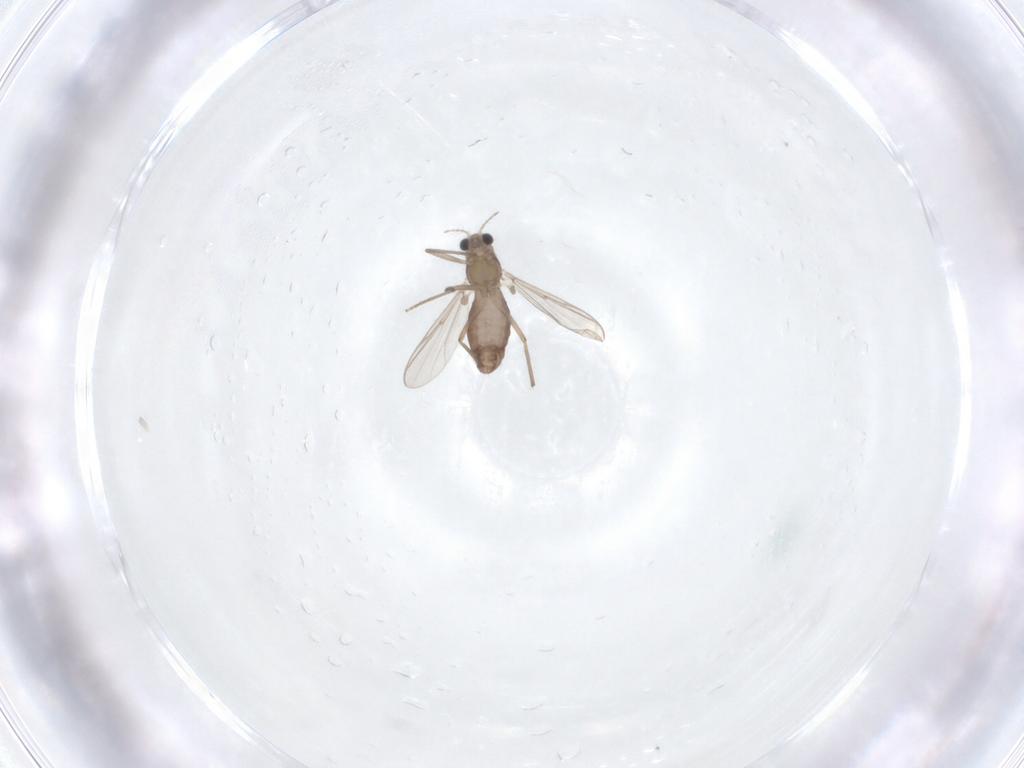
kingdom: Animalia
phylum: Arthropoda
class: Insecta
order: Diptera
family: Chironomidae
